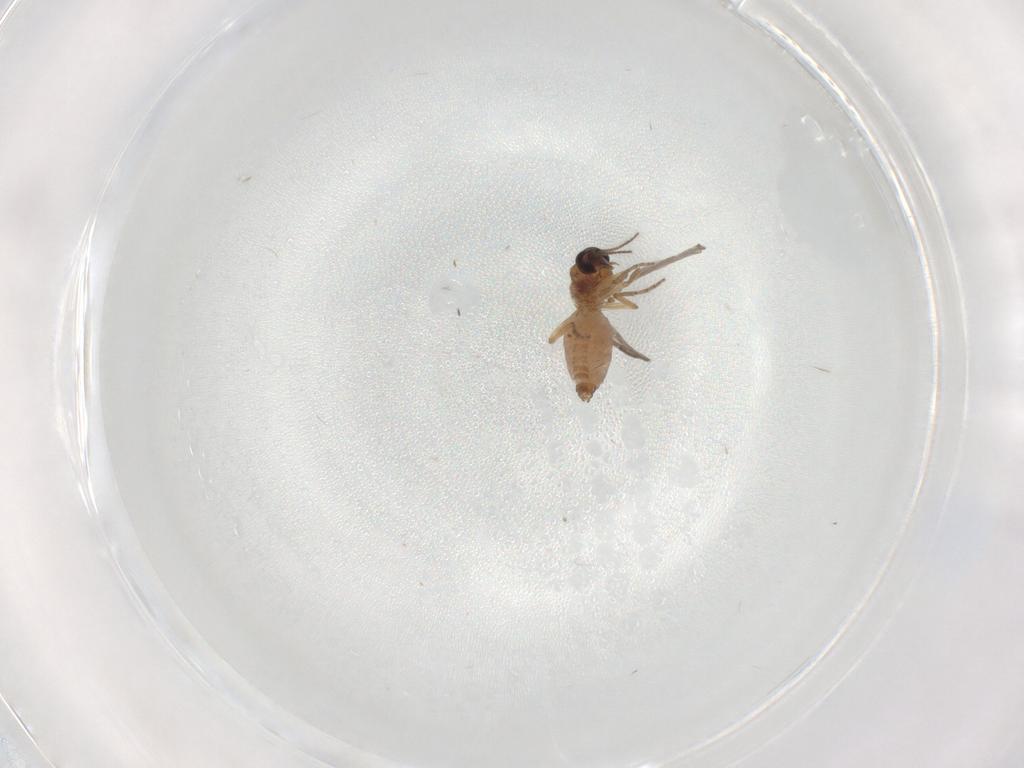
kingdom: Animalia
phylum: Arthropoda
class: Insecta
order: Diptera
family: Chironomidae
